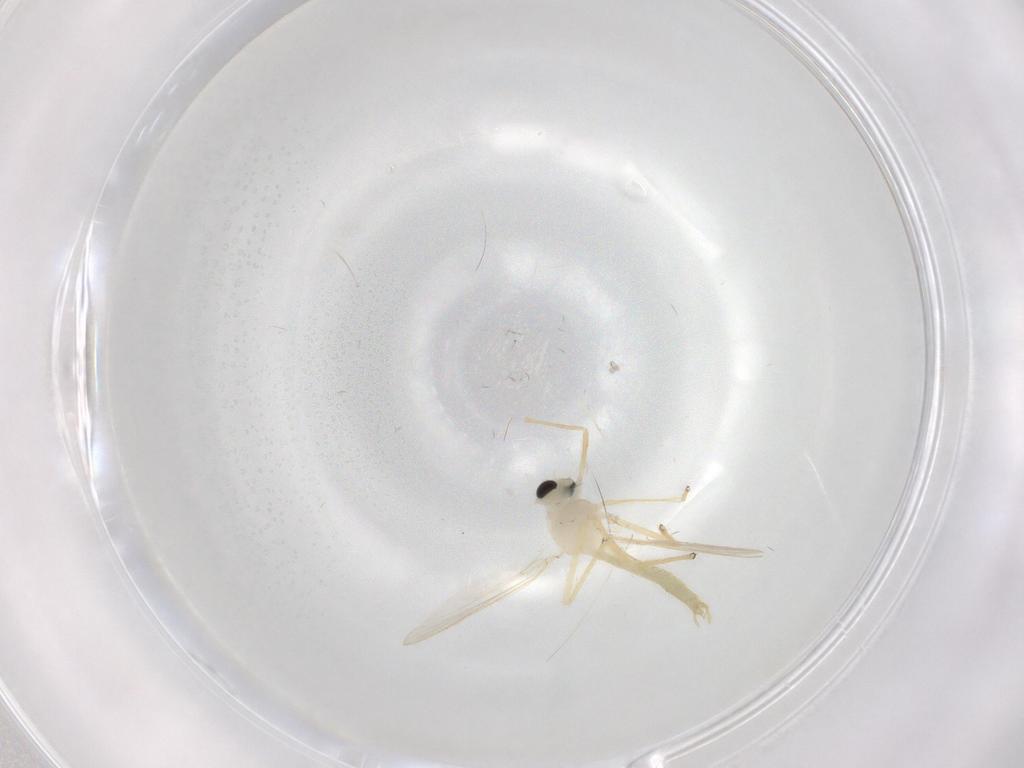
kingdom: Animalia
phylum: Arthropoda
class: Insecta
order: Diptera
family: Chironomidae
